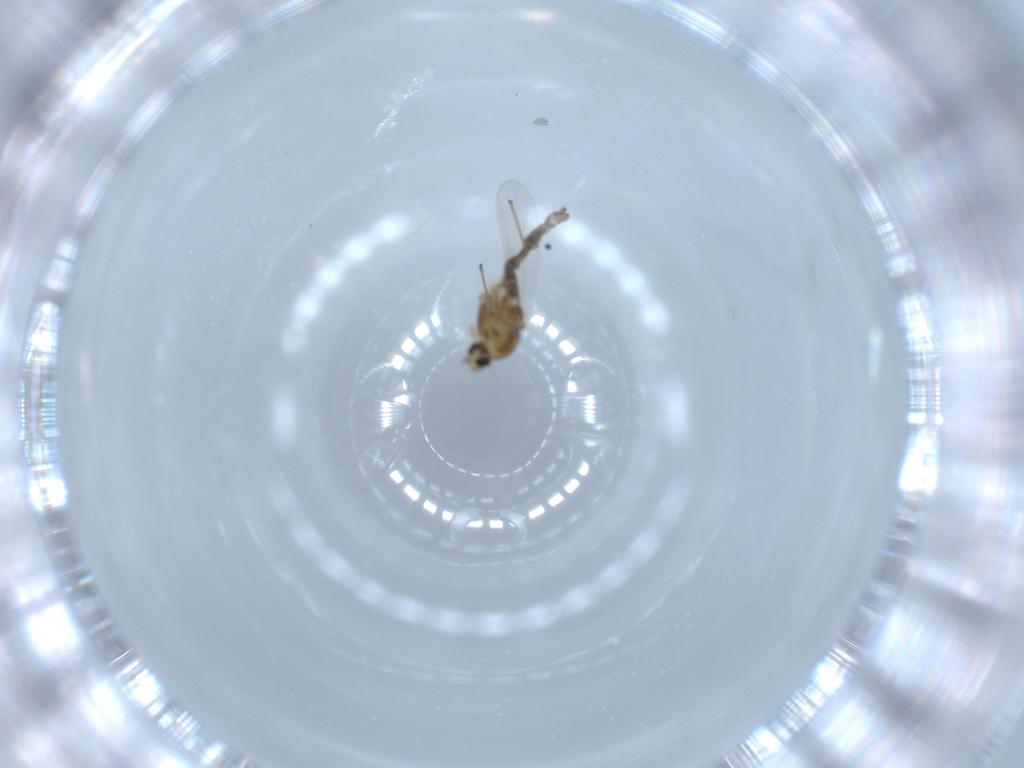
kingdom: Animalia
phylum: Arthropoda
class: Insecta
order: Diptera
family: Chironomidae
